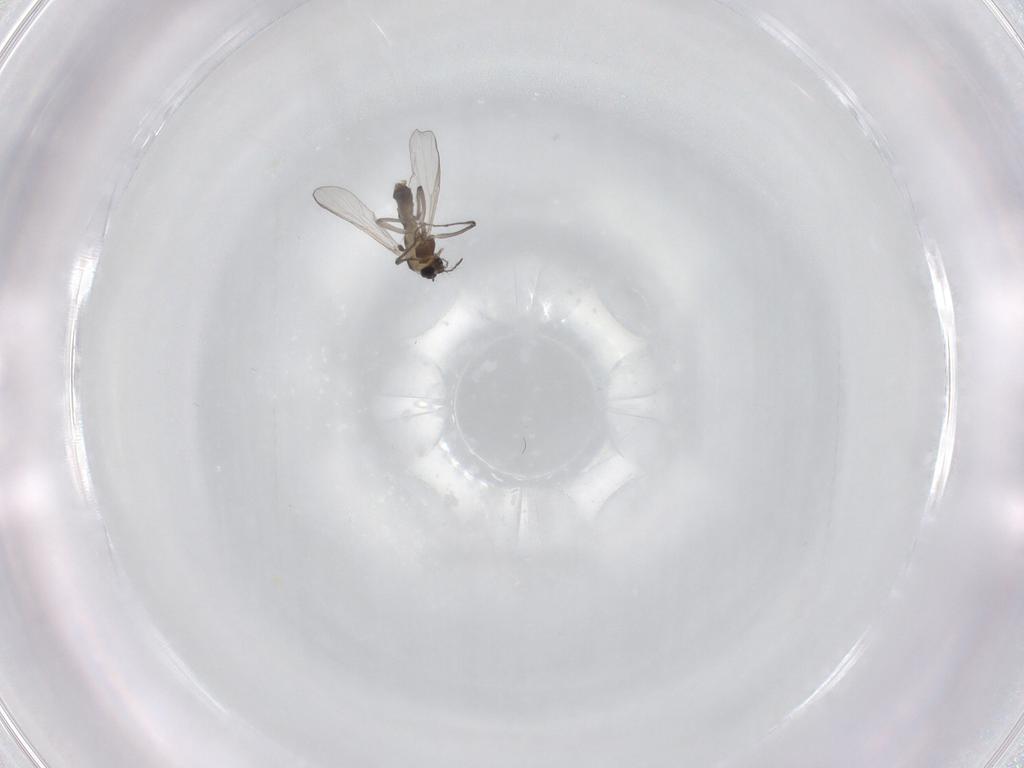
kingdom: Animalia
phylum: Arthropoda
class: Insecta
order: Diptera
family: Sciaridae
